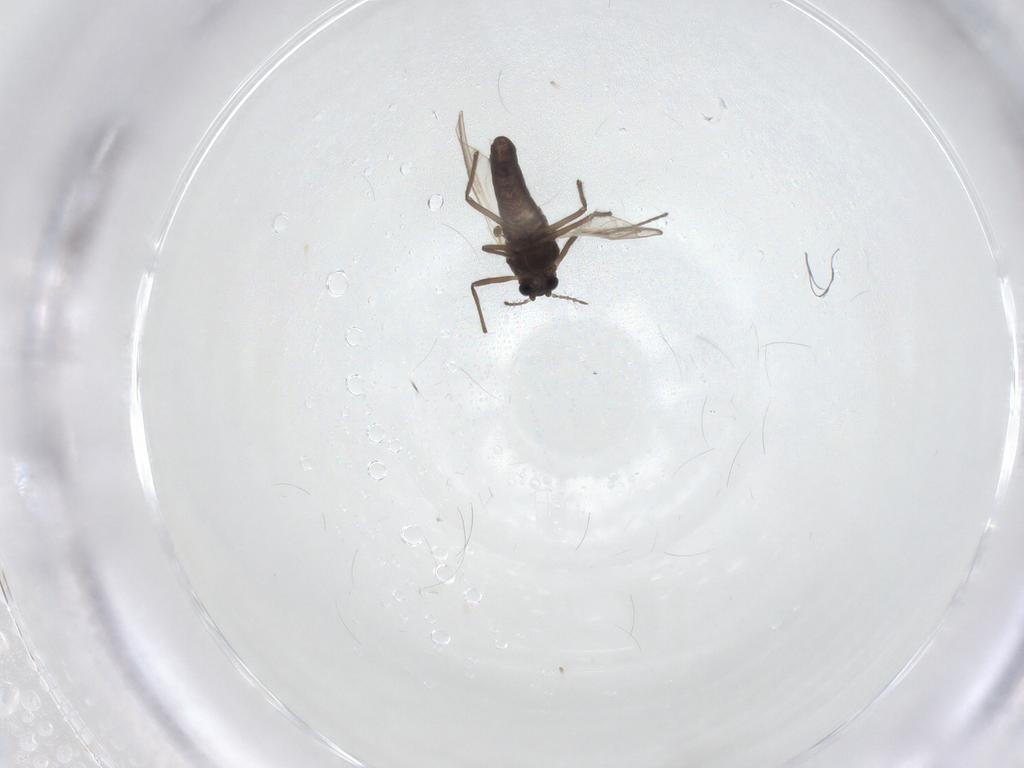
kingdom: Animalia
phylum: Arthropoda
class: Insecta
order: Diptera
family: Chironomidae
